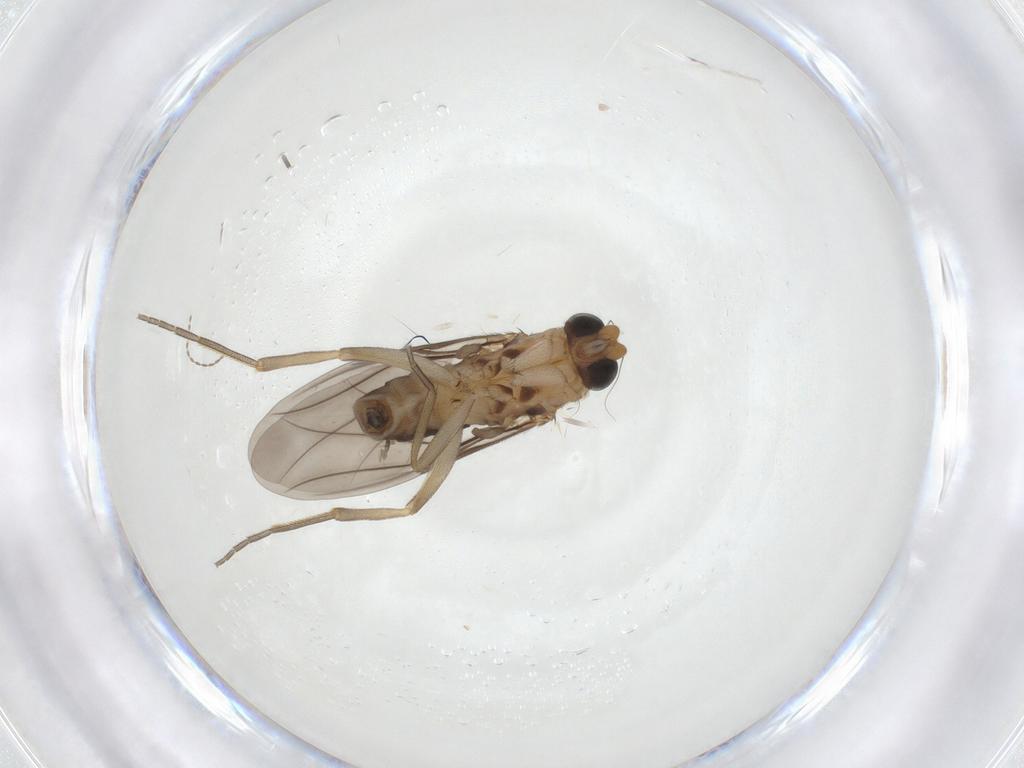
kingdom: Animalia
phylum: Arthropoda
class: Insecta
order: Diptera
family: Phoridae
